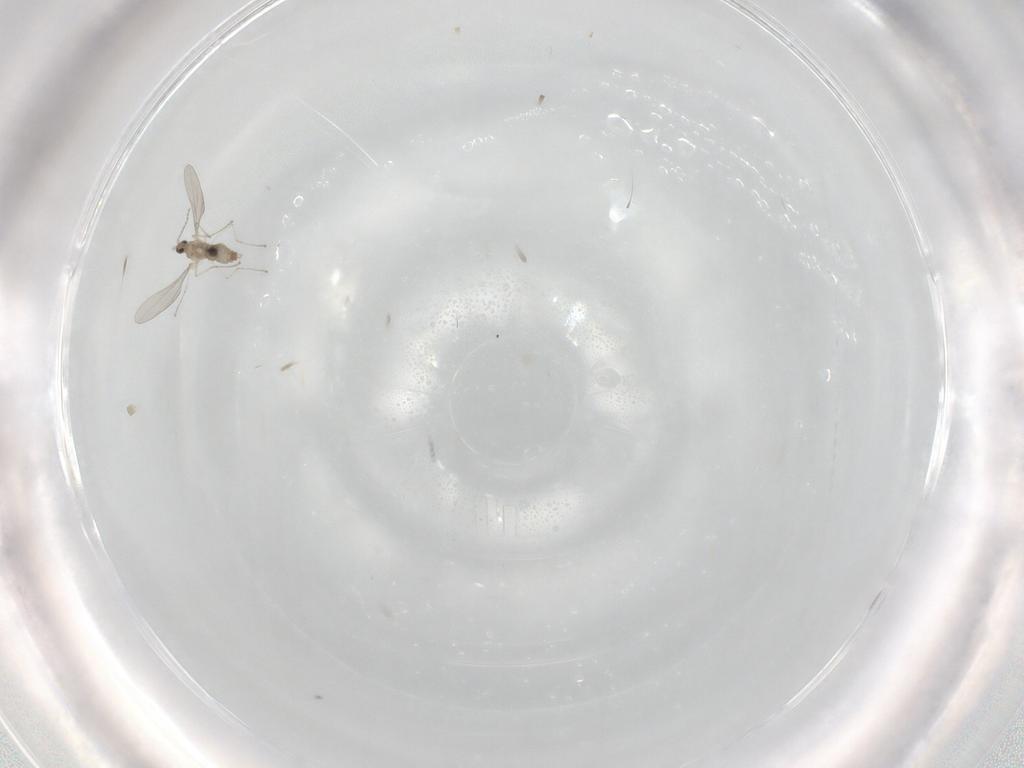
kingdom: Animalia
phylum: Arthropoda
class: Insecta
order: Diptera
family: Cecidomyiidae
